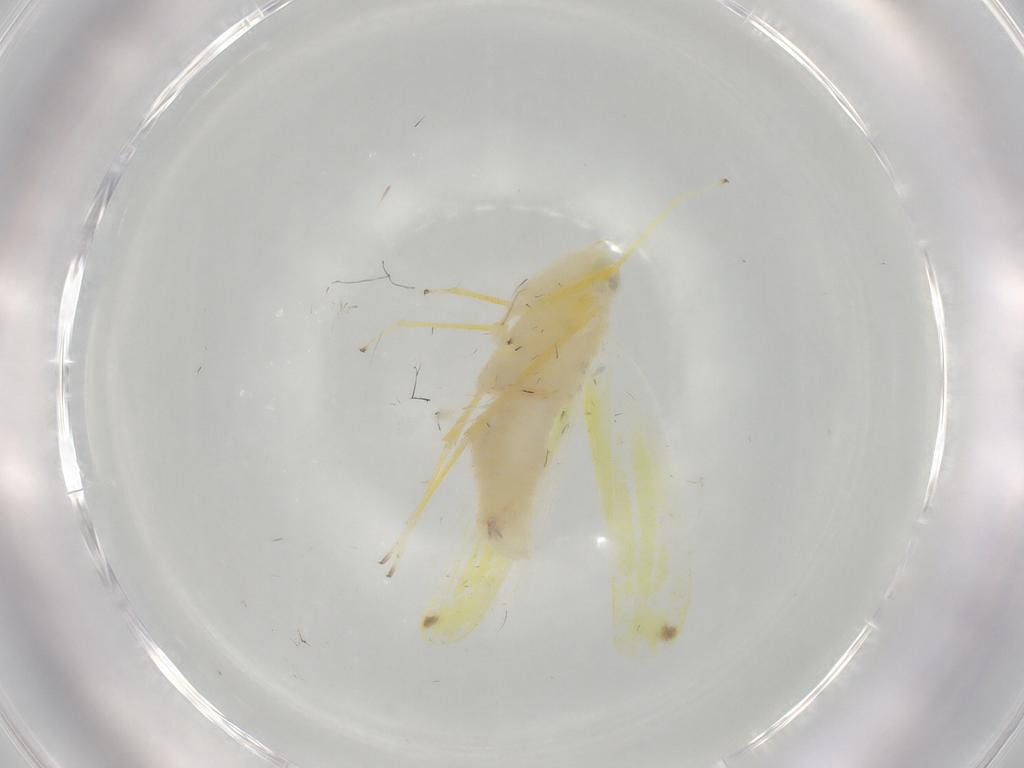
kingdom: Animalia
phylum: Arthropoda
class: Insecta
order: Hemiptera
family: Cicadellidae
